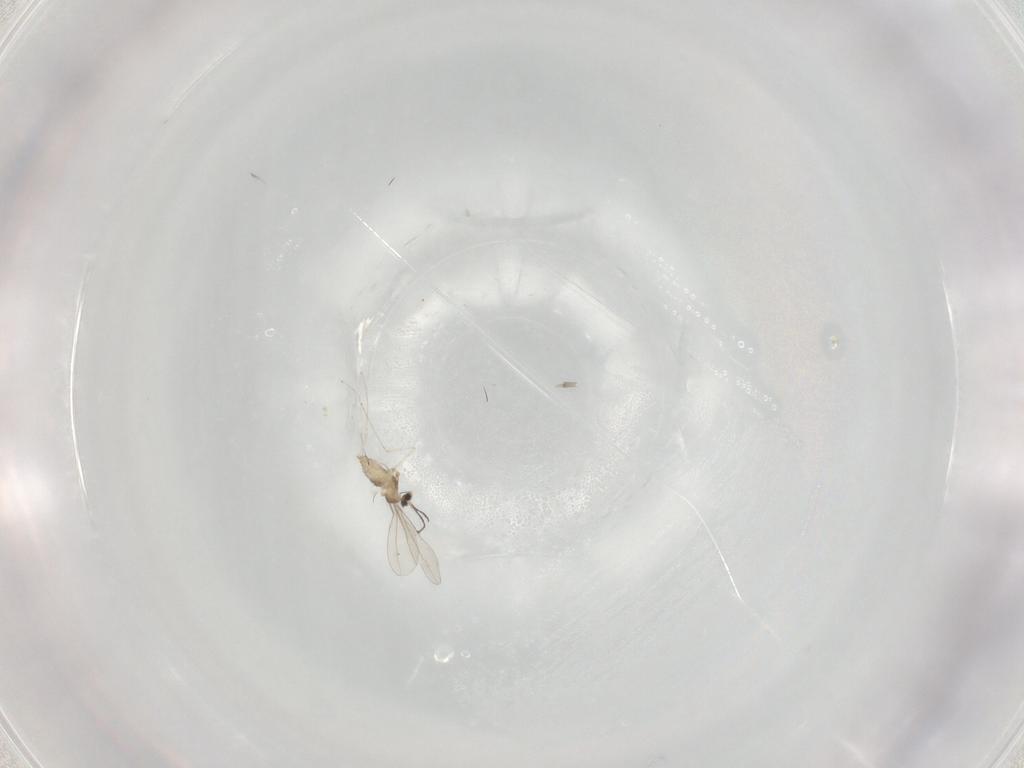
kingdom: Animalia
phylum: Arthropoda
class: Insecta
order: Diptera
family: Cecidomyiidae
